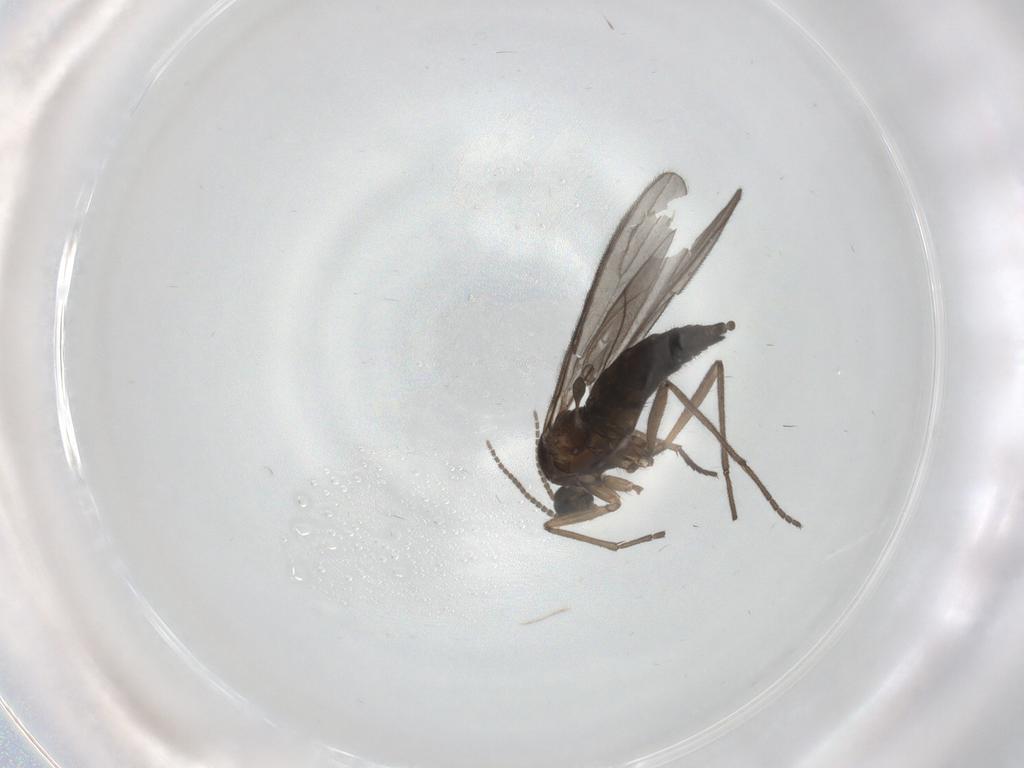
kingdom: Animalia
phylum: Arthropoda
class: Insecta
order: Diptera
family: Sciaridae
